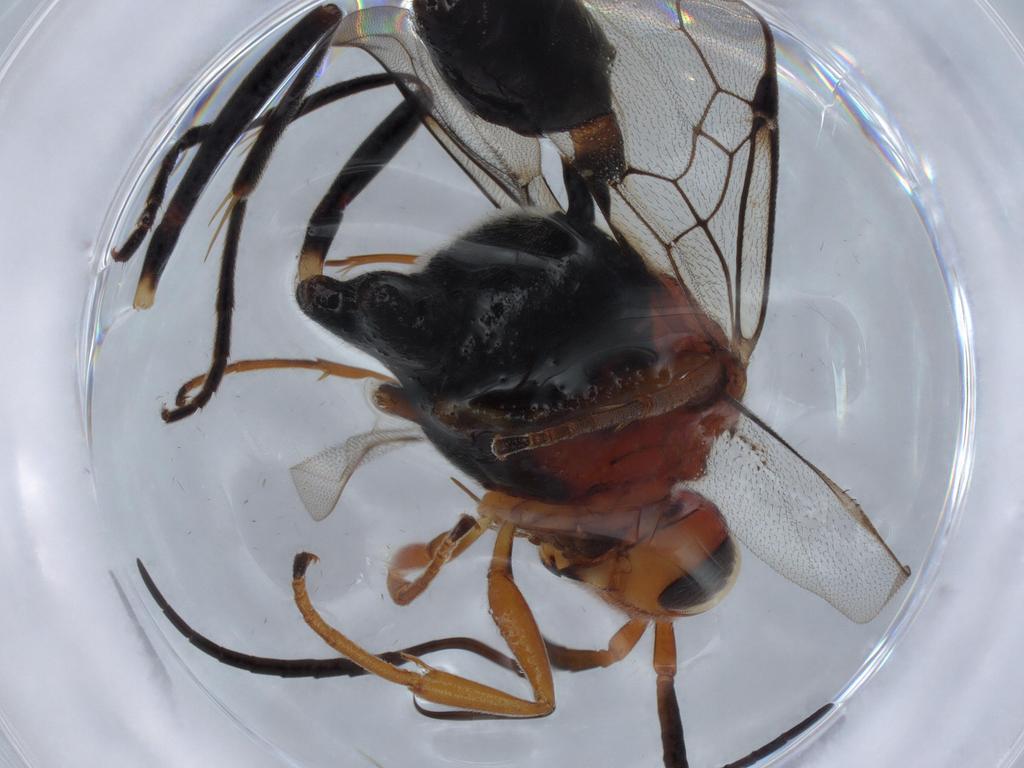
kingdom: Animalia
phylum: Arthropoda
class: Insecta
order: Hymenoptera
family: Evaniidae
